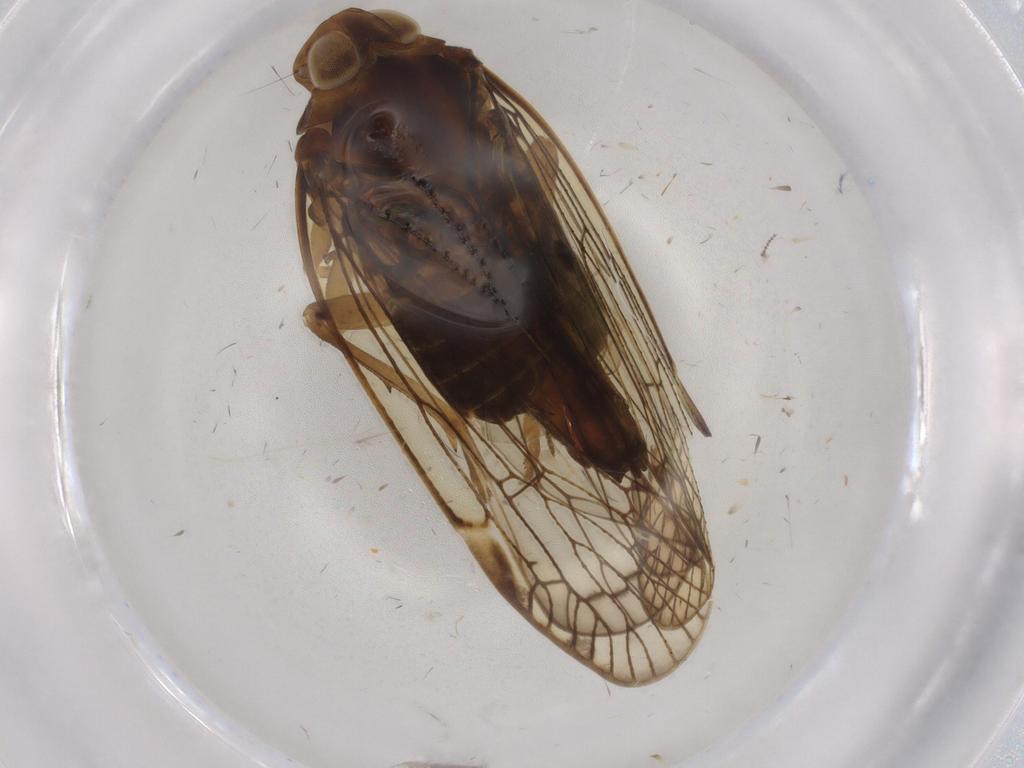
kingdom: Animalia
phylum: Arthropoda
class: Insecta
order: Hemiptera
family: Cixiidae
